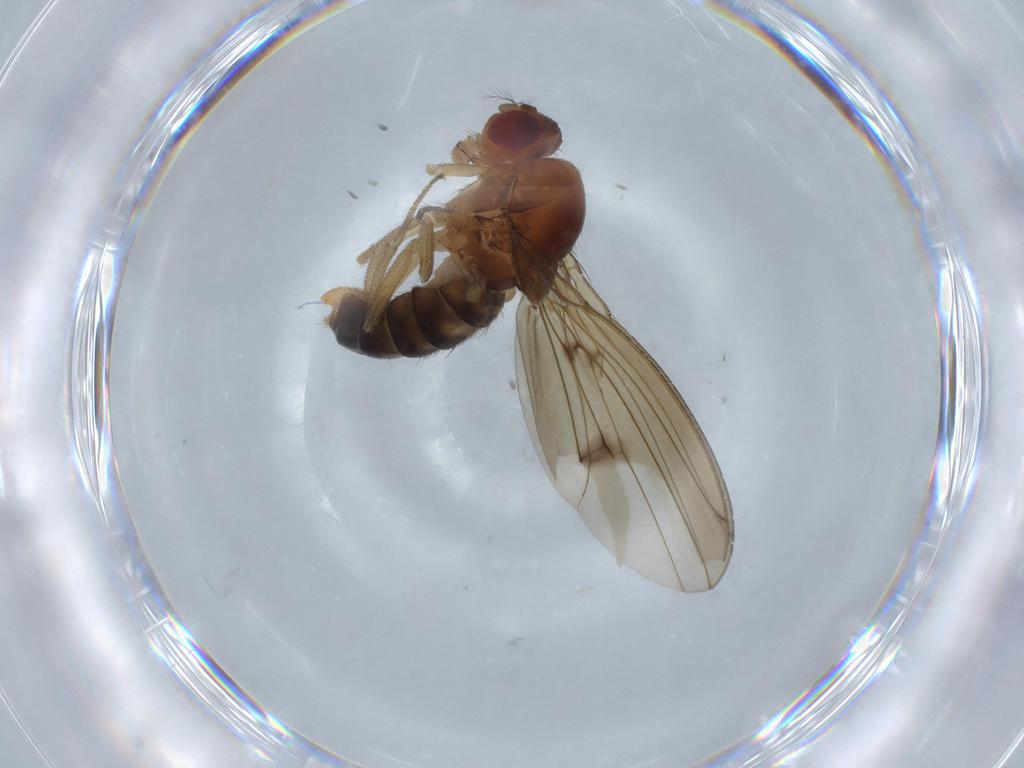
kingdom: Animalia
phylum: Arthropoda
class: Insecta
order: Diptera
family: Drosophilidae
